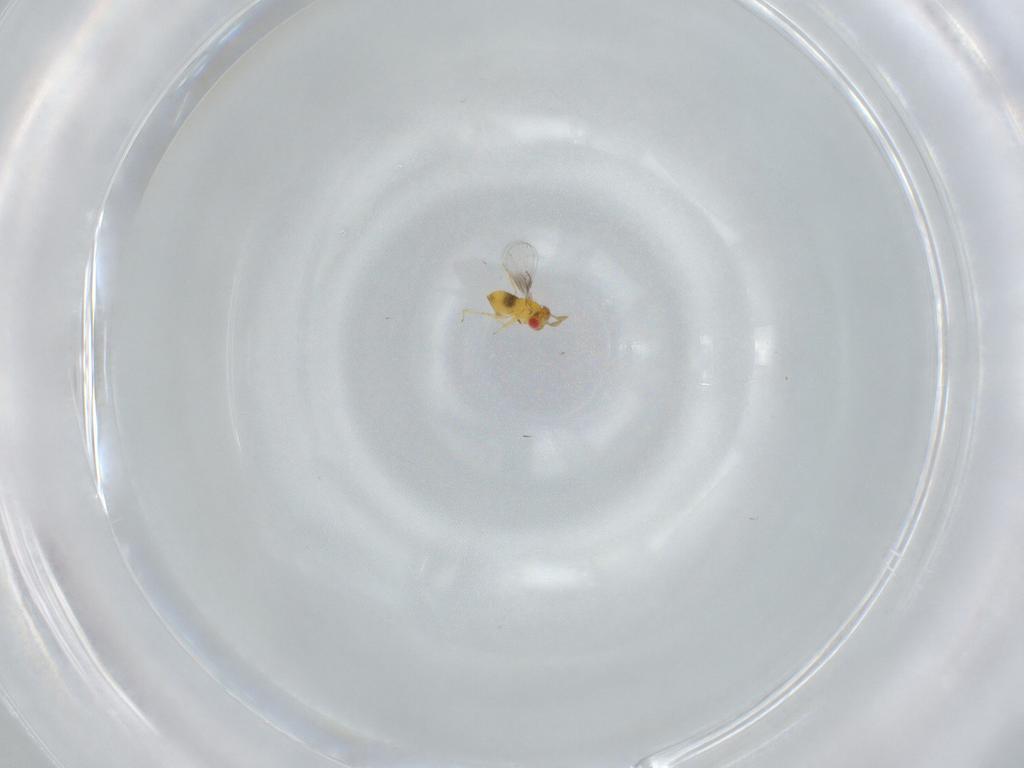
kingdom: Animalia
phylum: Arthropoda
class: Insecta
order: Hymenoptera
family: Trichogrammatidae
